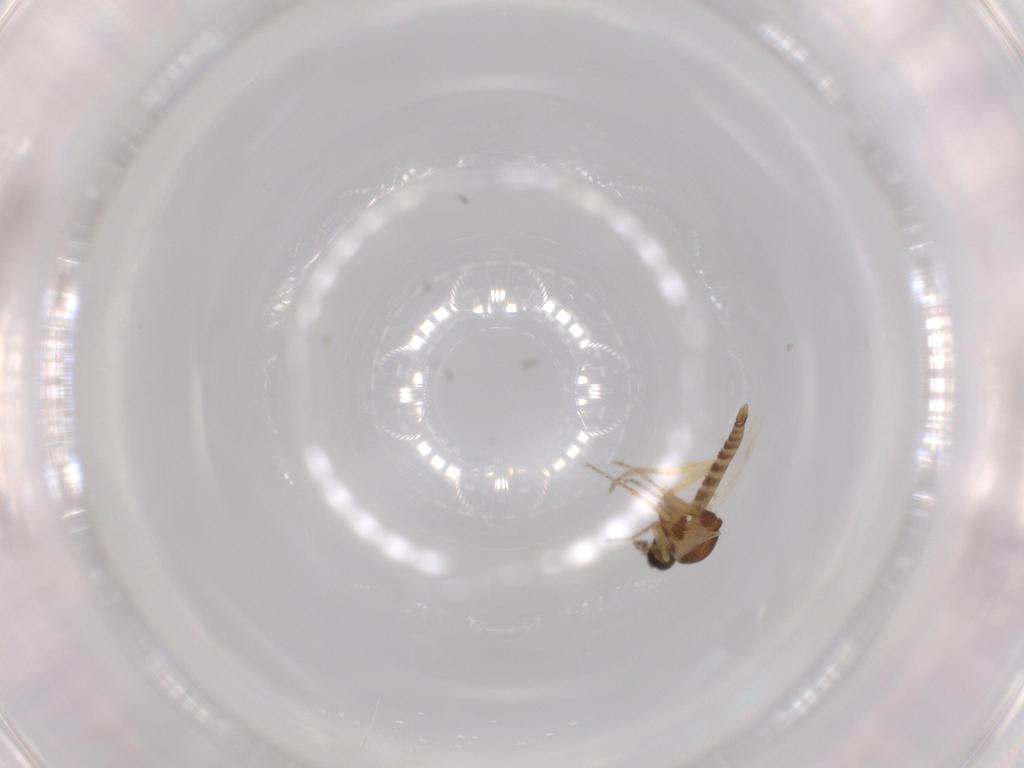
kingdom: Animalia
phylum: Arthropoda
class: Insecta
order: Diptera
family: Ceratopogonidae
